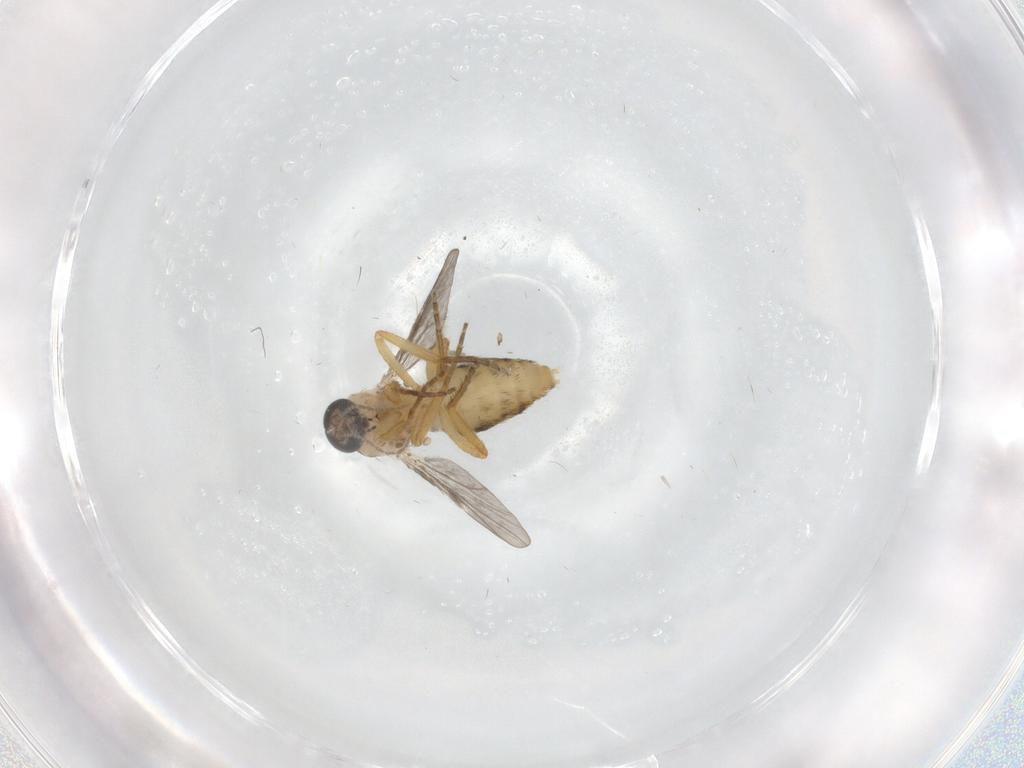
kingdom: Animalia
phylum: Arthropoda
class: Insecta
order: Diptera
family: Ceratopogonidae
